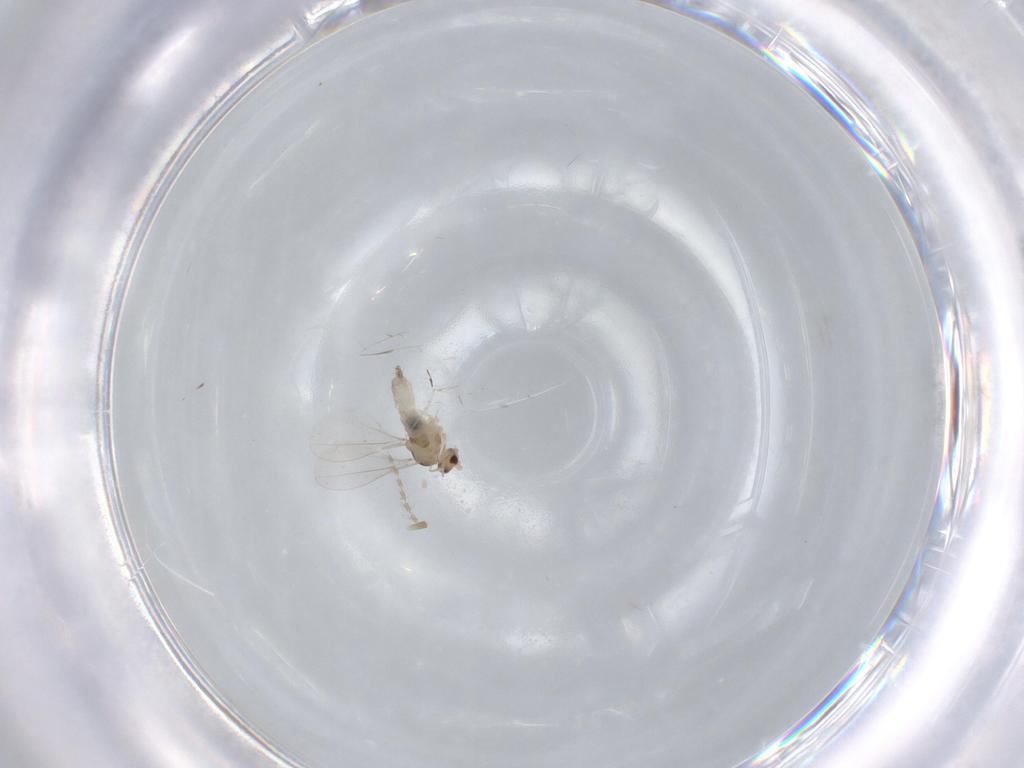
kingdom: Animalia
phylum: Arthropoda
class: Insecta
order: Diptera
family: Cecidomyiidae
